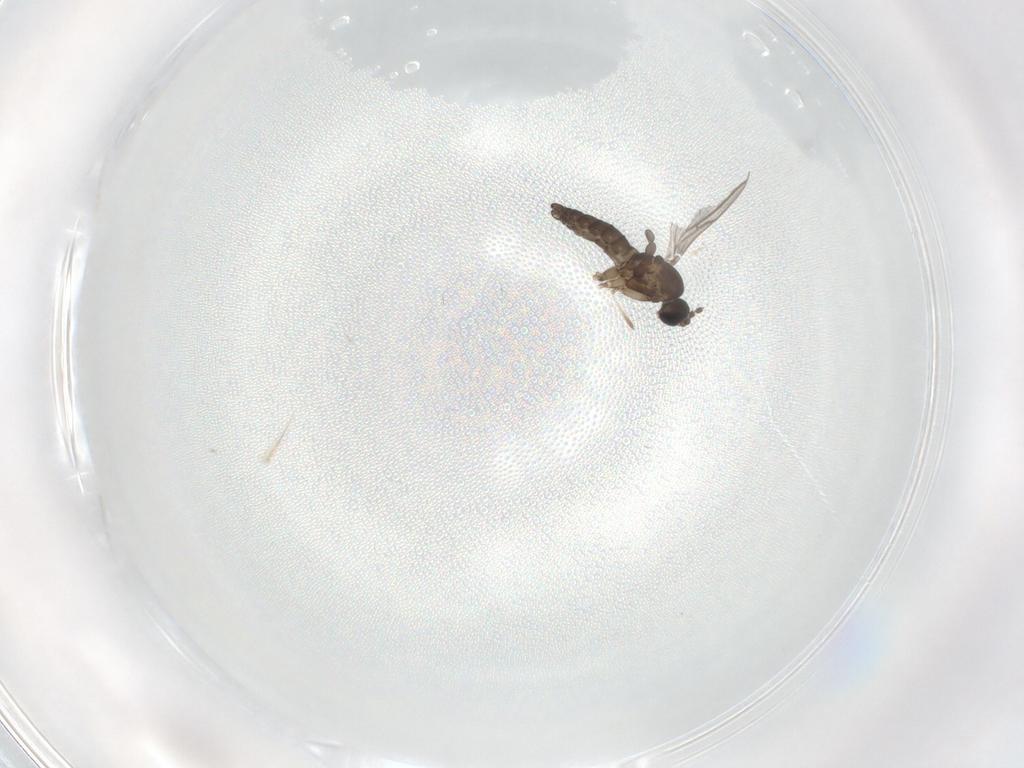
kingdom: Animalia
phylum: Arthropoda
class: Insecta
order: Diptera
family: Cecidomyiidae
